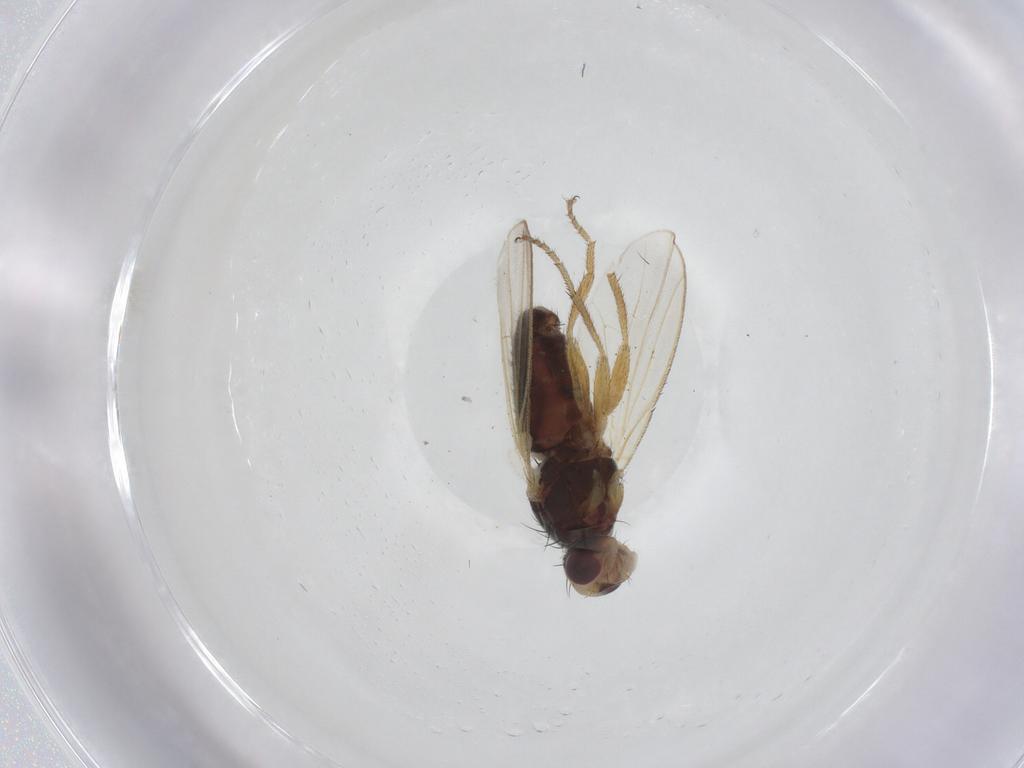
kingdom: Animalia
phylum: Arthropoda
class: Insecta
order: Diptera
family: Heleomyzidae
